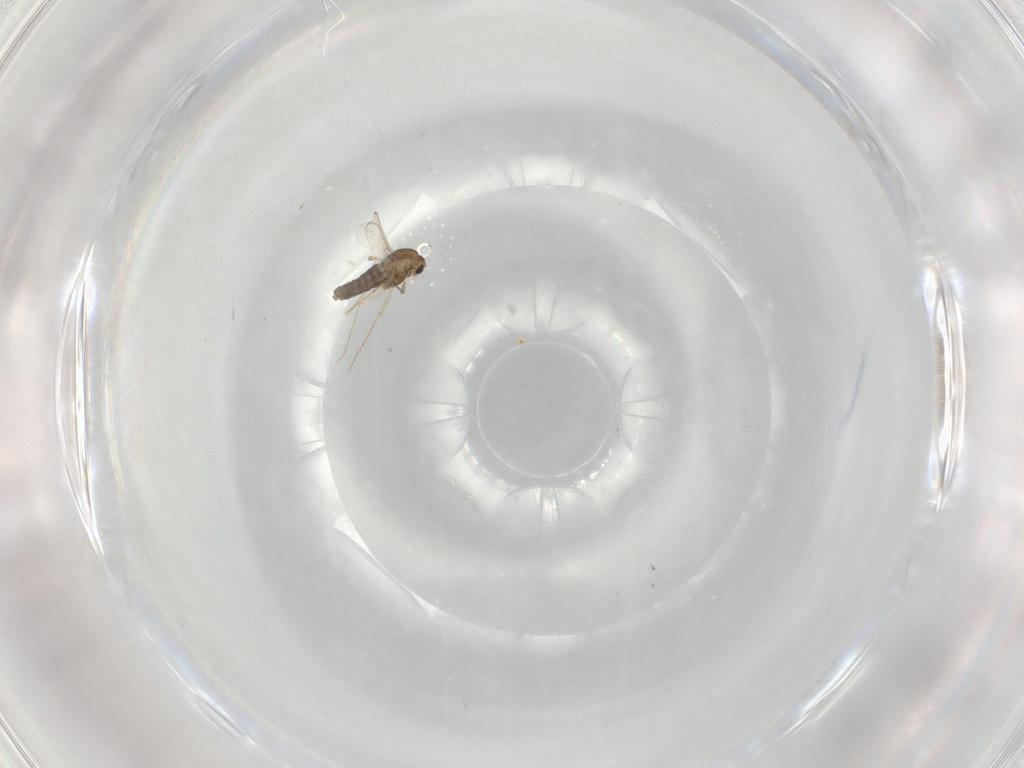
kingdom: Animalia
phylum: Arthropoda
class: Insecta
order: Diptera
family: Chironomidae
